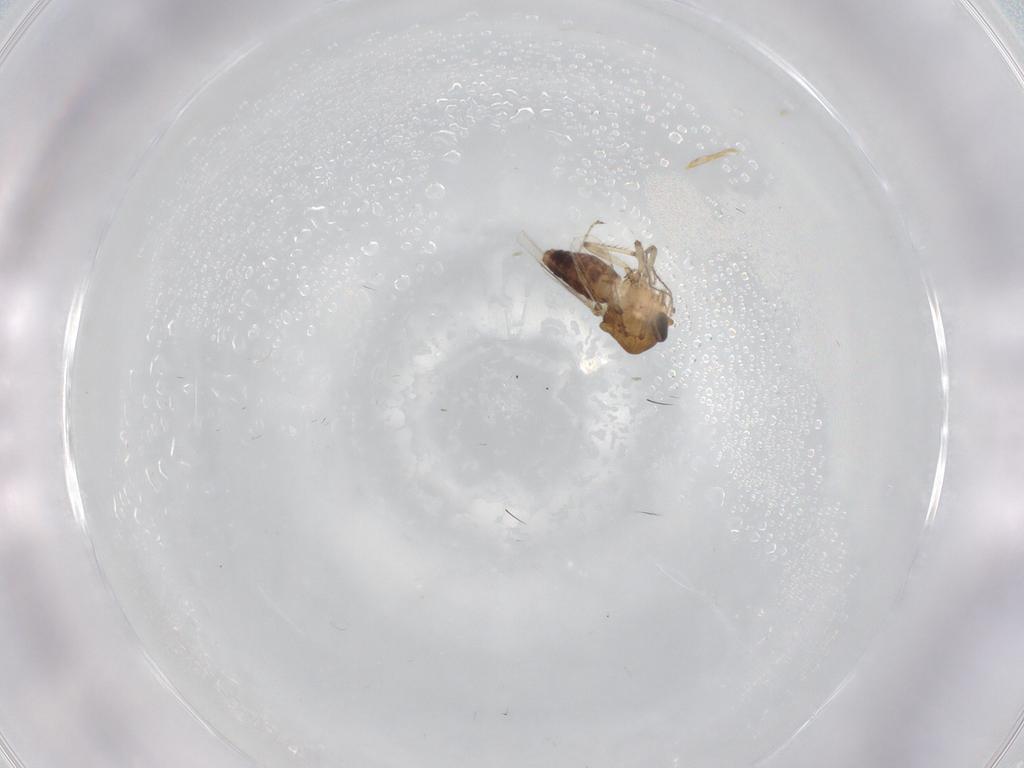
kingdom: Animalia
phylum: Arthropoda
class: Insecta
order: Diptera
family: Ceratopogonidae
